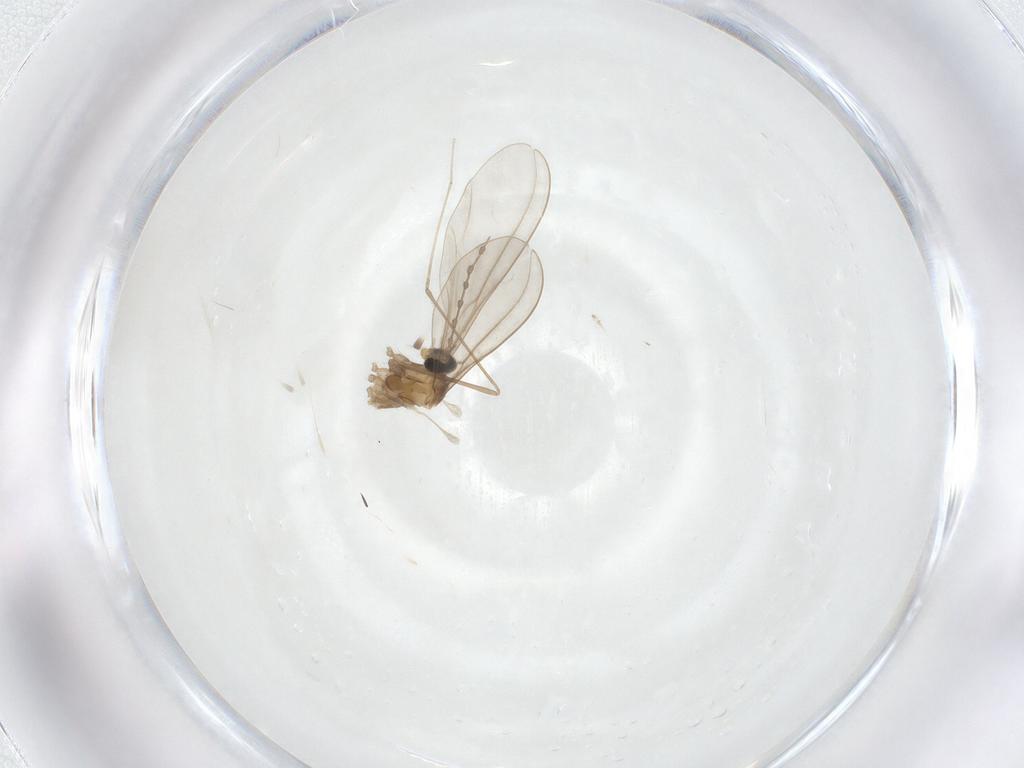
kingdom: Animalia
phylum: Arthropoda
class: Insecta
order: Diptera
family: Cecidomyiidae
